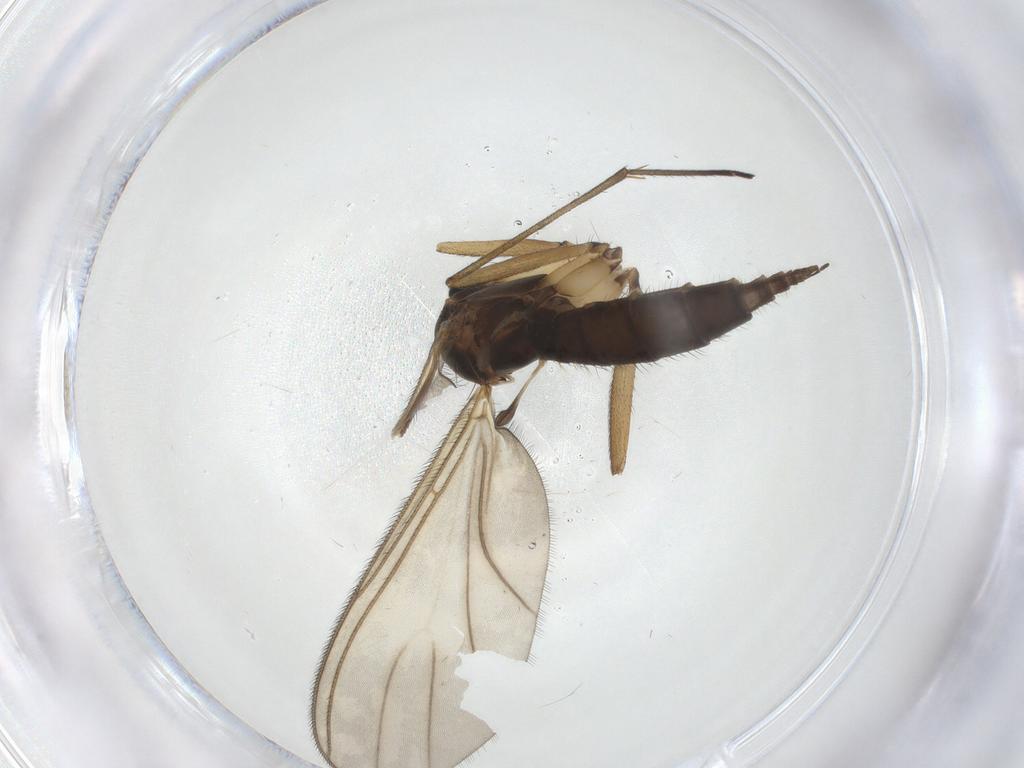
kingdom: Animalia
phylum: Arthropoda
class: Insecta
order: Diptera
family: Sciaridae
